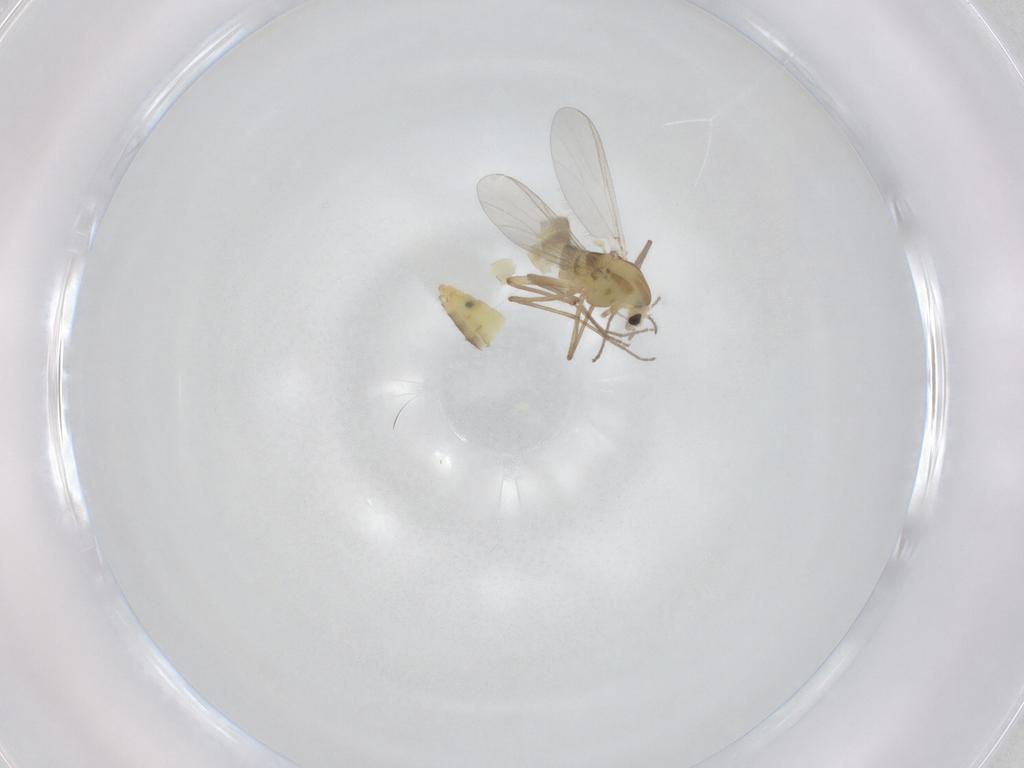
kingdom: Animalia
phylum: Arthropoda
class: Insecta
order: Diptera
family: Chironomidae
